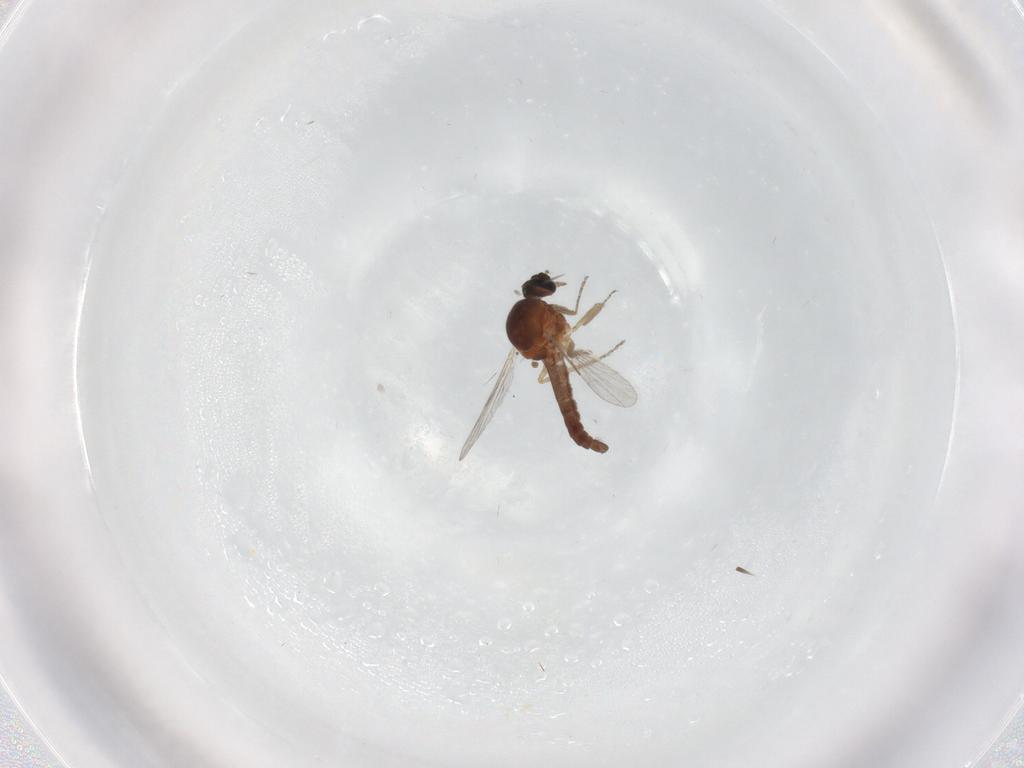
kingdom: Animalia
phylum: Arthropoda
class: Insecta
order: Diptera
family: Ceratopogonidae
